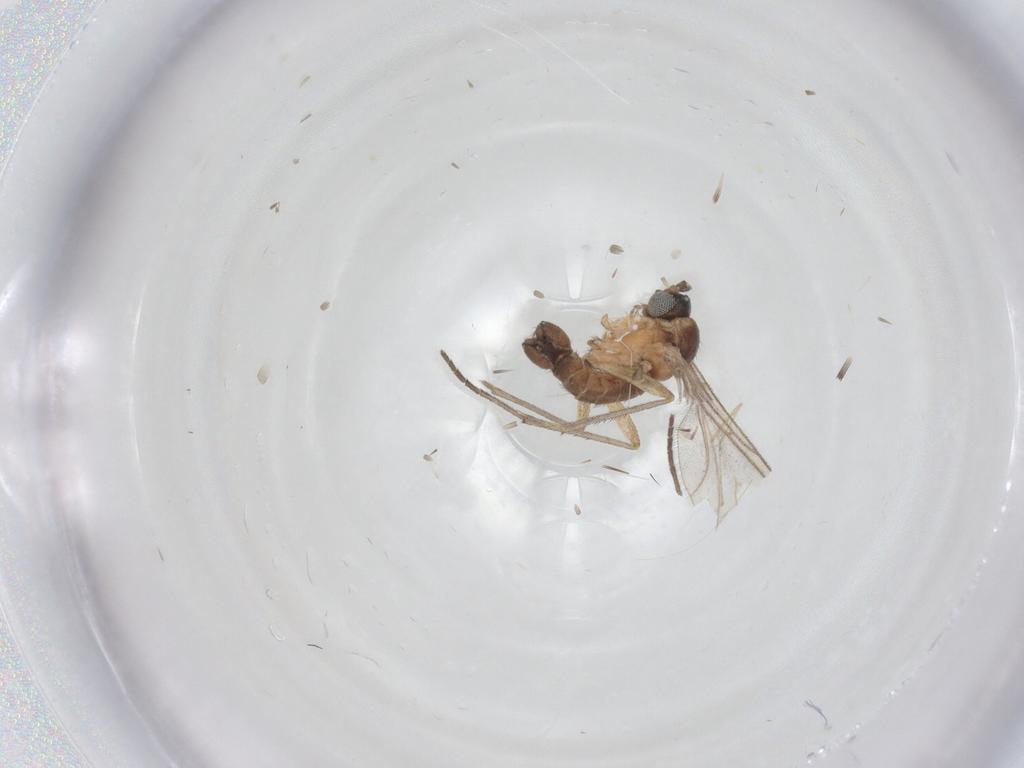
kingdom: Animalia
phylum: Arthropoda
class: Insecta
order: Diptera
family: Sciaridae
